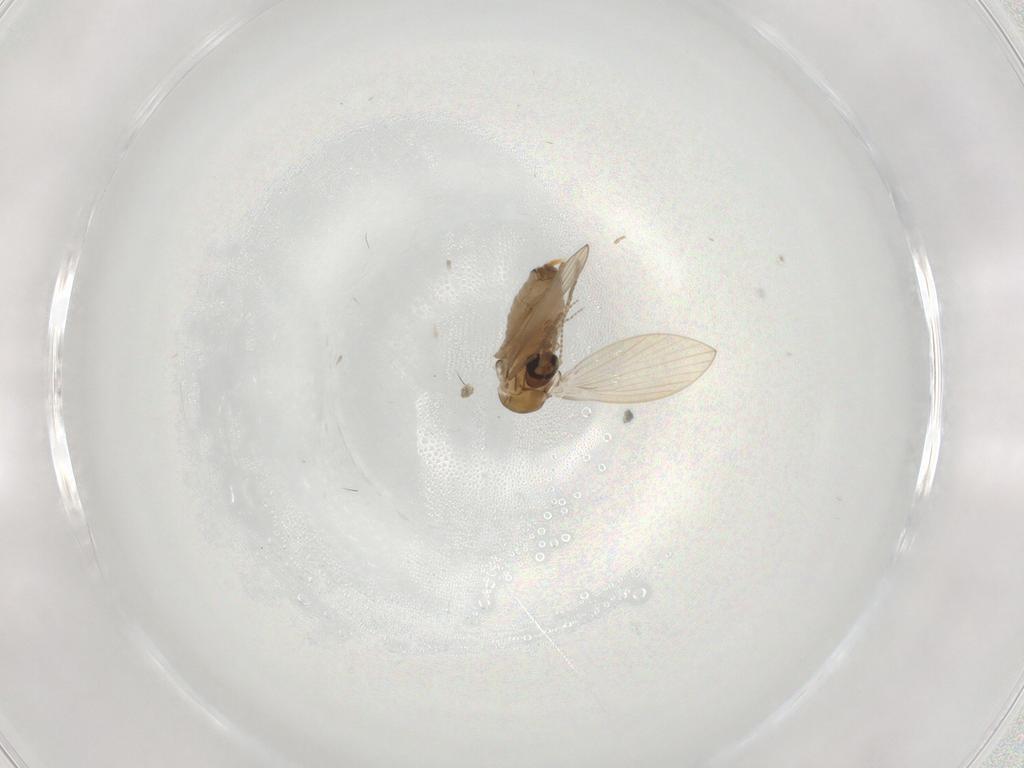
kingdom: Animalia
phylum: Arthropoda
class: Insecta
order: Diptera
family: Psychodidae
